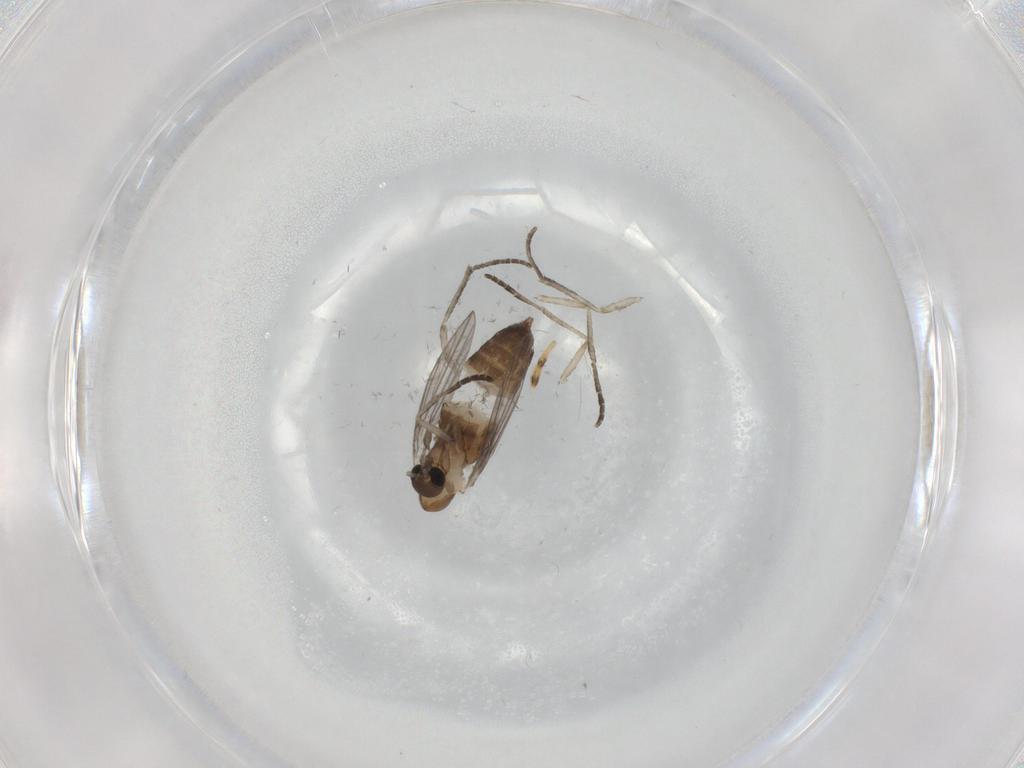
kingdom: Animalia
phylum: Arthropoda
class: Insecta
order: Diptera
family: Psychodidae
